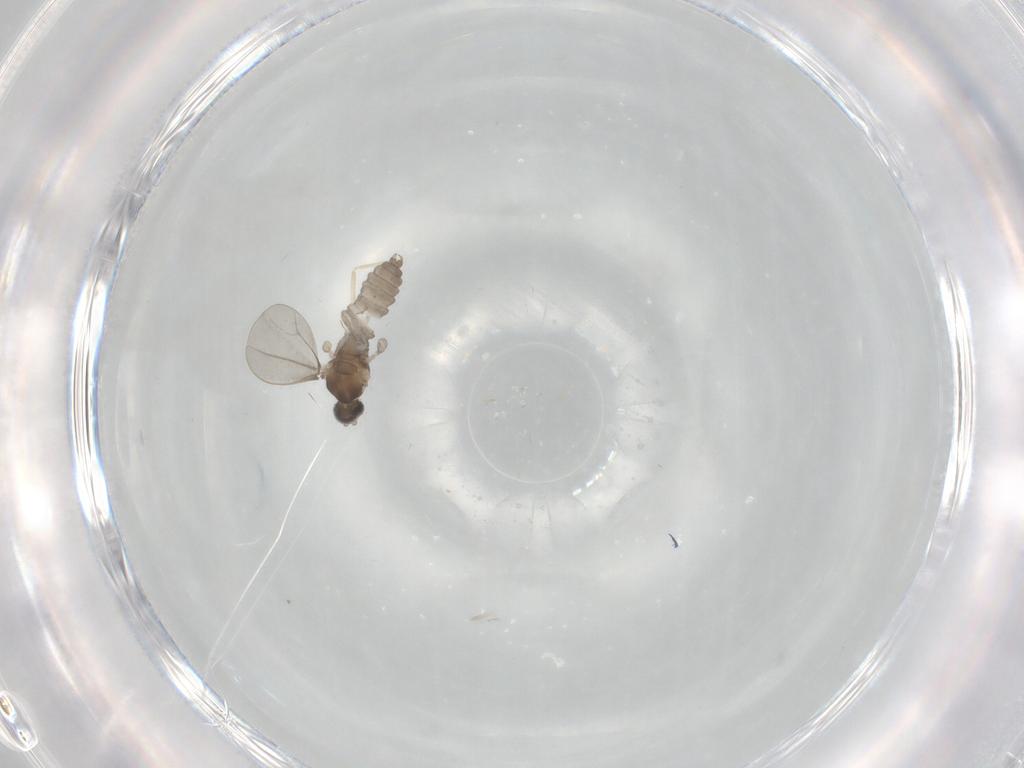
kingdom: Animalia
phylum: Arthropoda
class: Insecta
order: Diptera
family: Chironomidae
